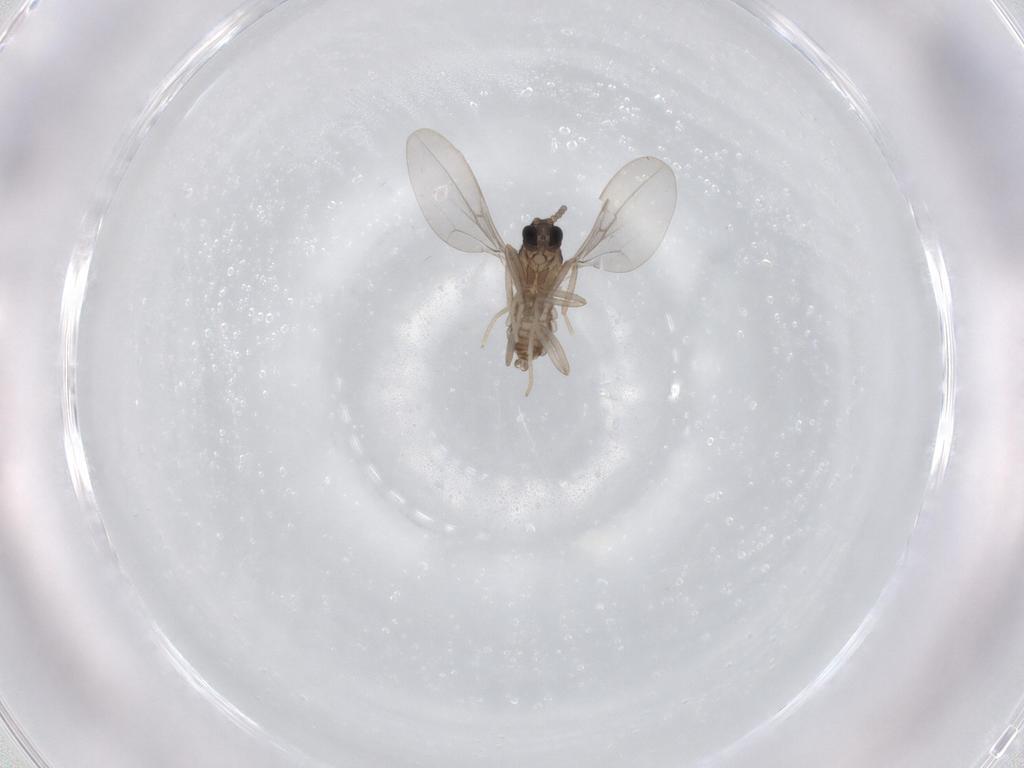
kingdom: Animalia
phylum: Arthropoda
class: Insecta
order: Diptera
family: Cecidomyiidae
